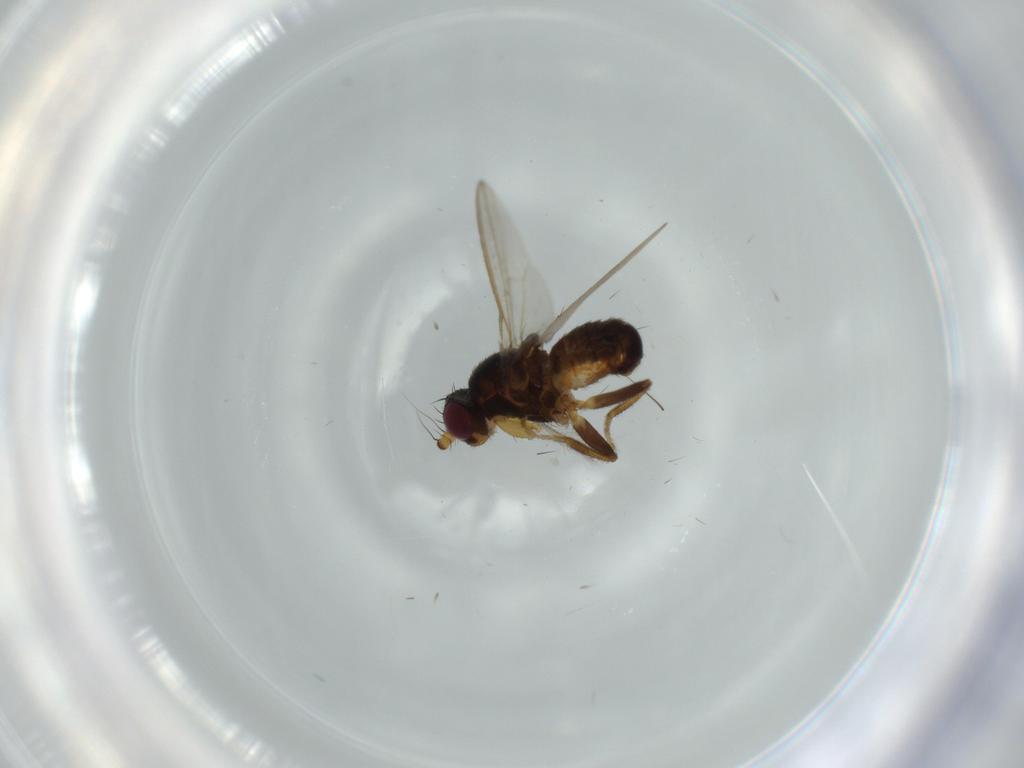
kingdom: Animalia
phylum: Arthropoda
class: Insecta
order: Diptera
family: Chironomidae
